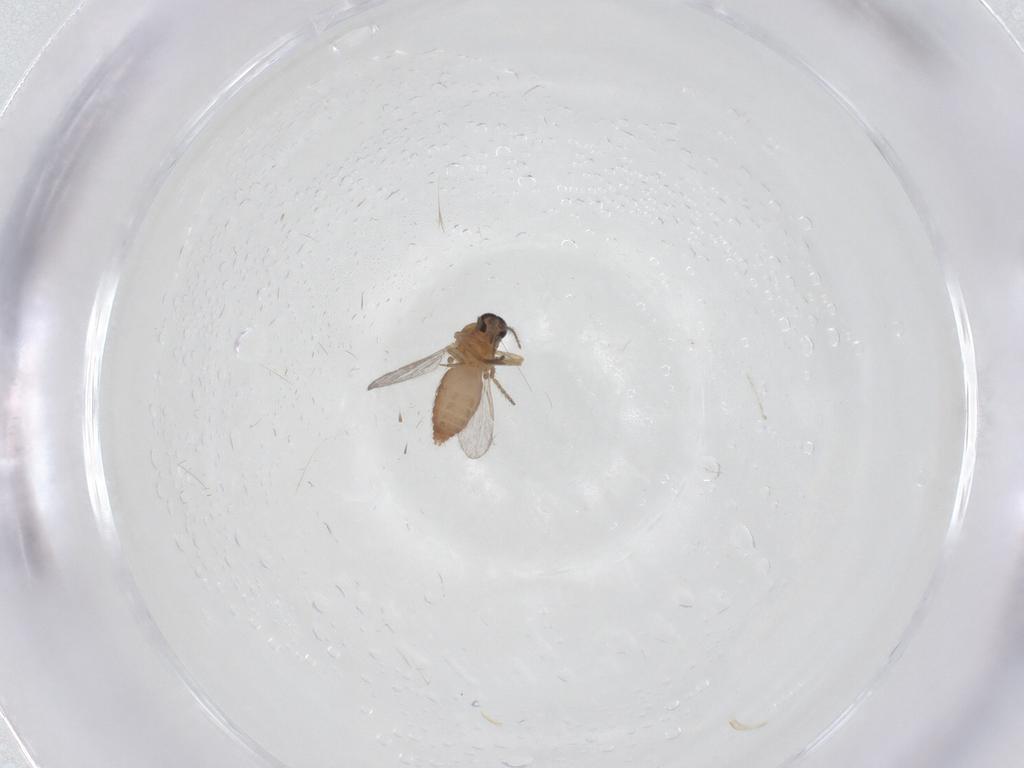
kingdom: Animalia
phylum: Arthropoda
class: Insecta
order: Diptera
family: Ceratopogonidae
